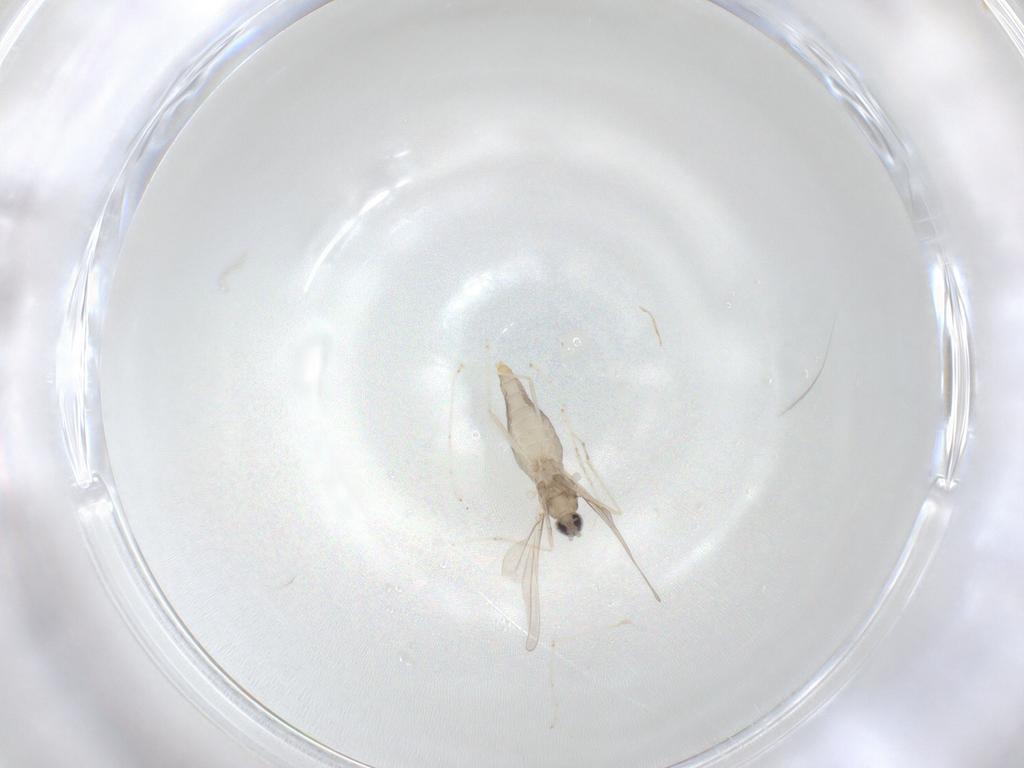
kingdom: Animalia
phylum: Arthropoda
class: Insecta
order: Diptera
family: Cecidomyiidae
